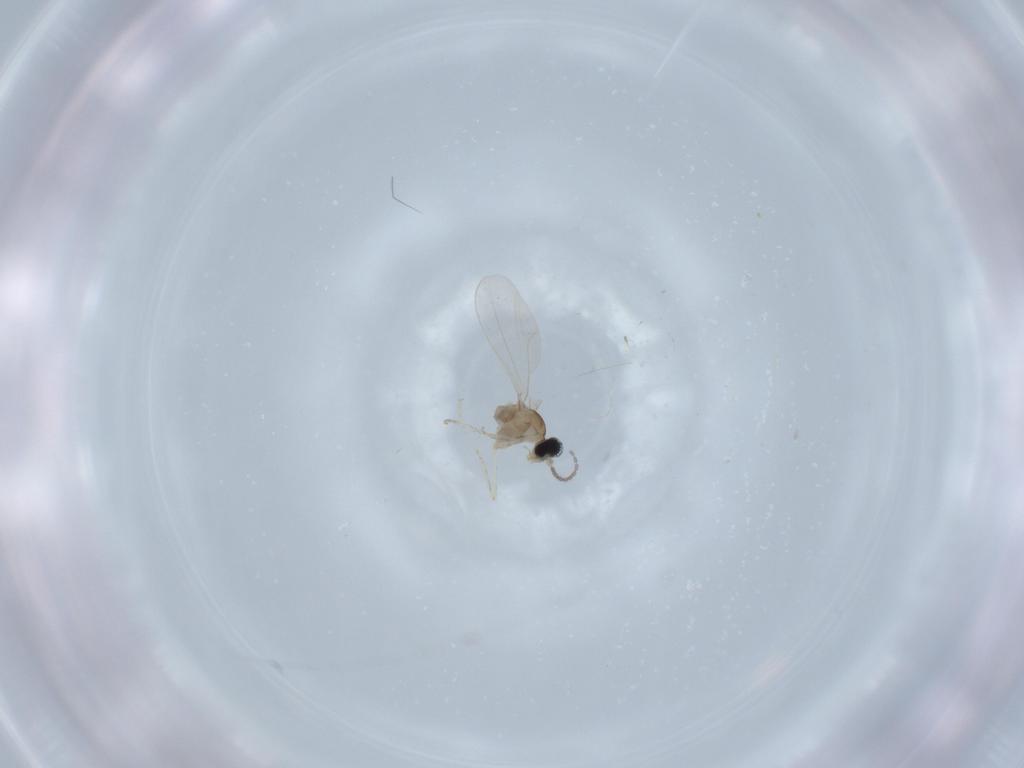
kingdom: Animalia
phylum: Arthropoda
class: Insecta
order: Diptera
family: Cecidomyiidae
